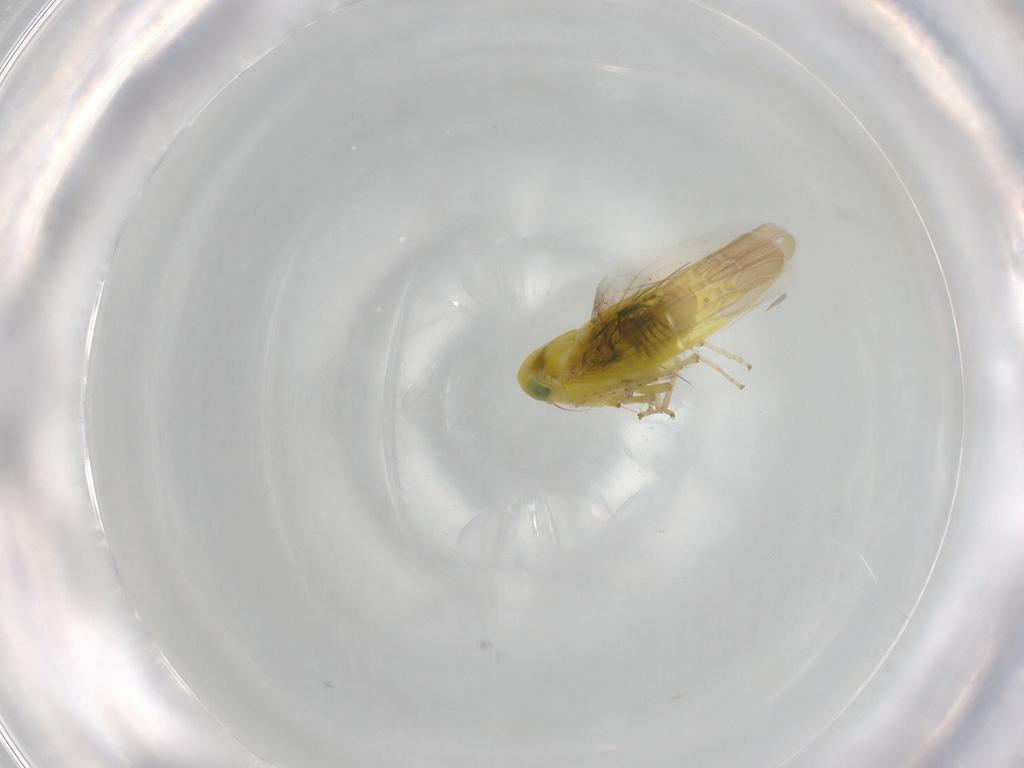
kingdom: Animalia
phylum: Arthropoda
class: Insecta
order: Hemiptera
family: Cicadellidae
